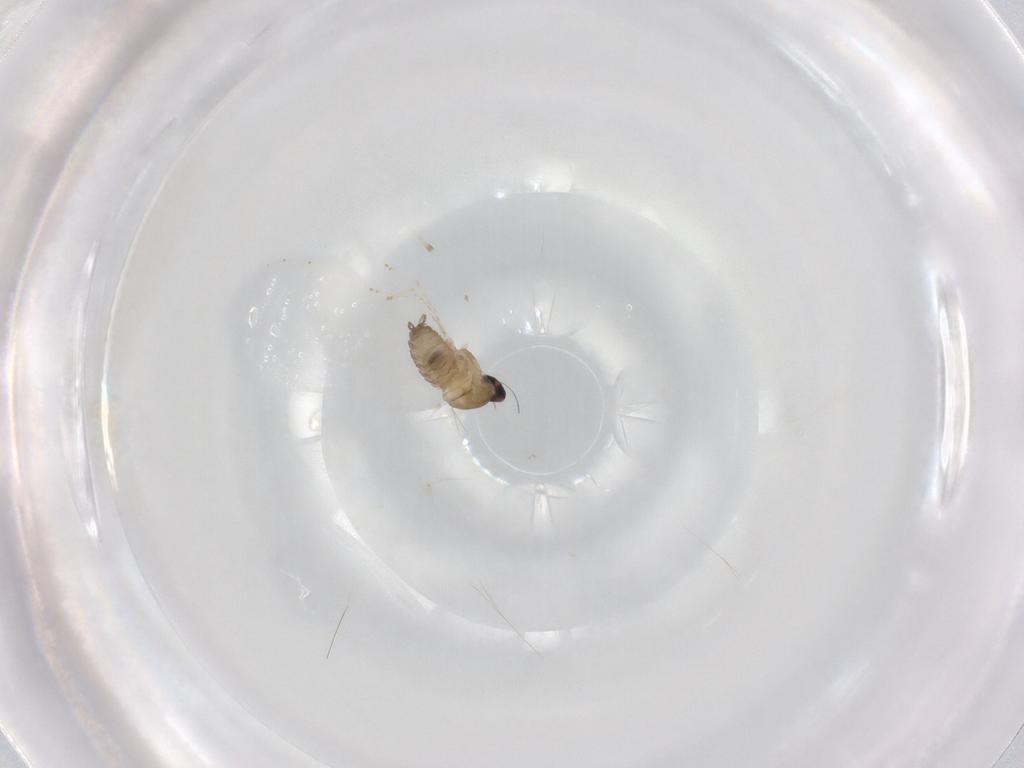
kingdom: Animalia
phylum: Arthropoda
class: Insecta
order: Diptera
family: Cecidomyiidae
